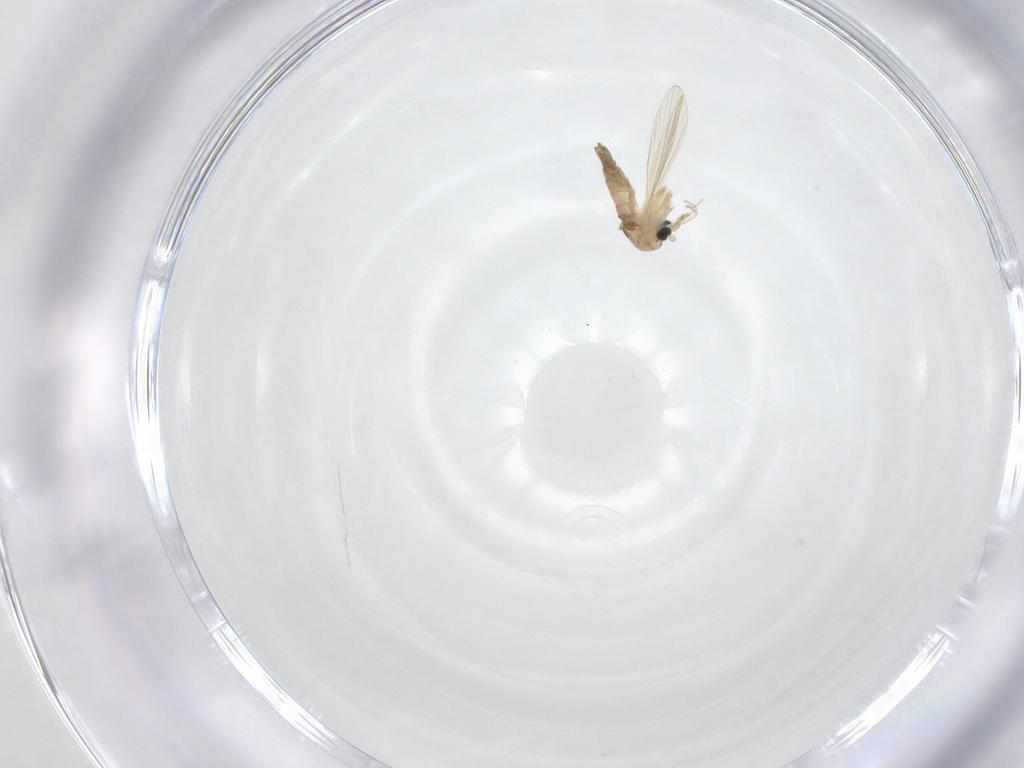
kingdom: Animalia
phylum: Arthropoda
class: Insecta
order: Diptera
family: Psychodidae
